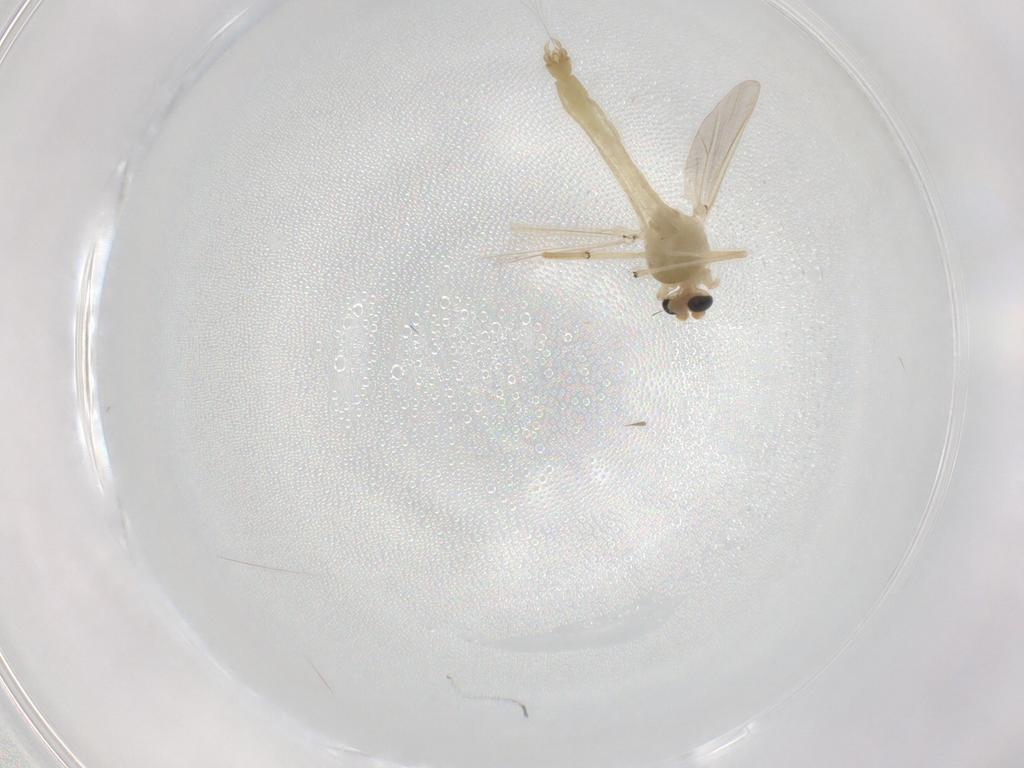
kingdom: Animalia
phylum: Arthropoda
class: Insecta
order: Diptera
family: Chironomidae
